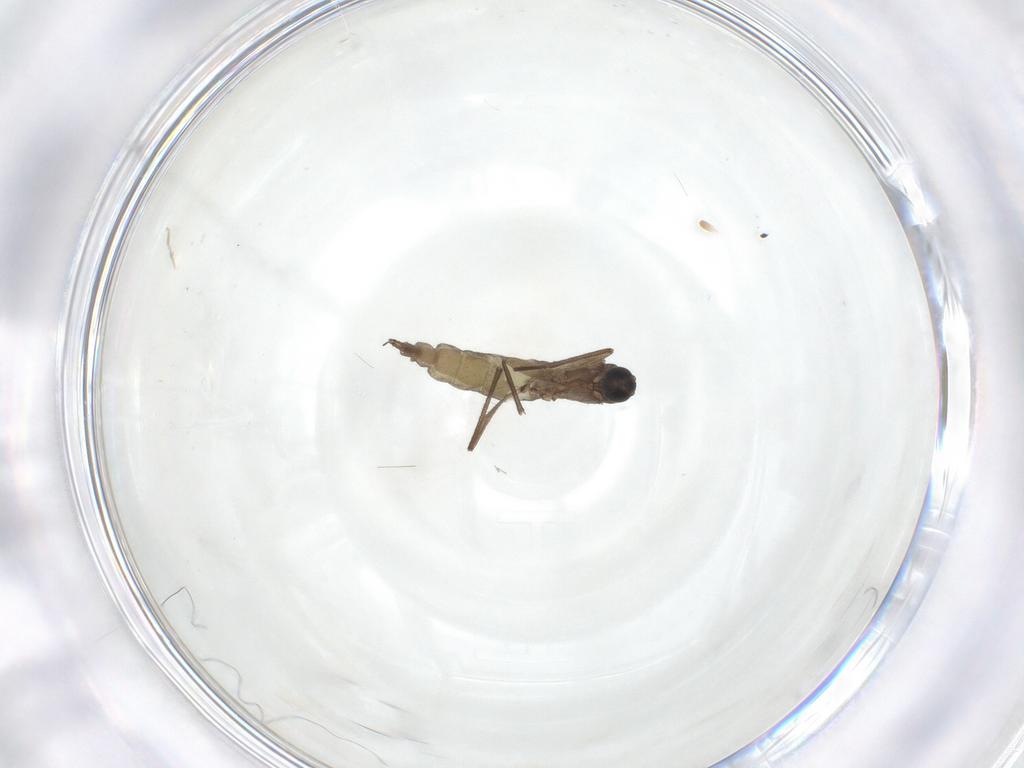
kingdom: Animalia
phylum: Arthropoda
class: Insecta
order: Diptera
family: Sciaridae
